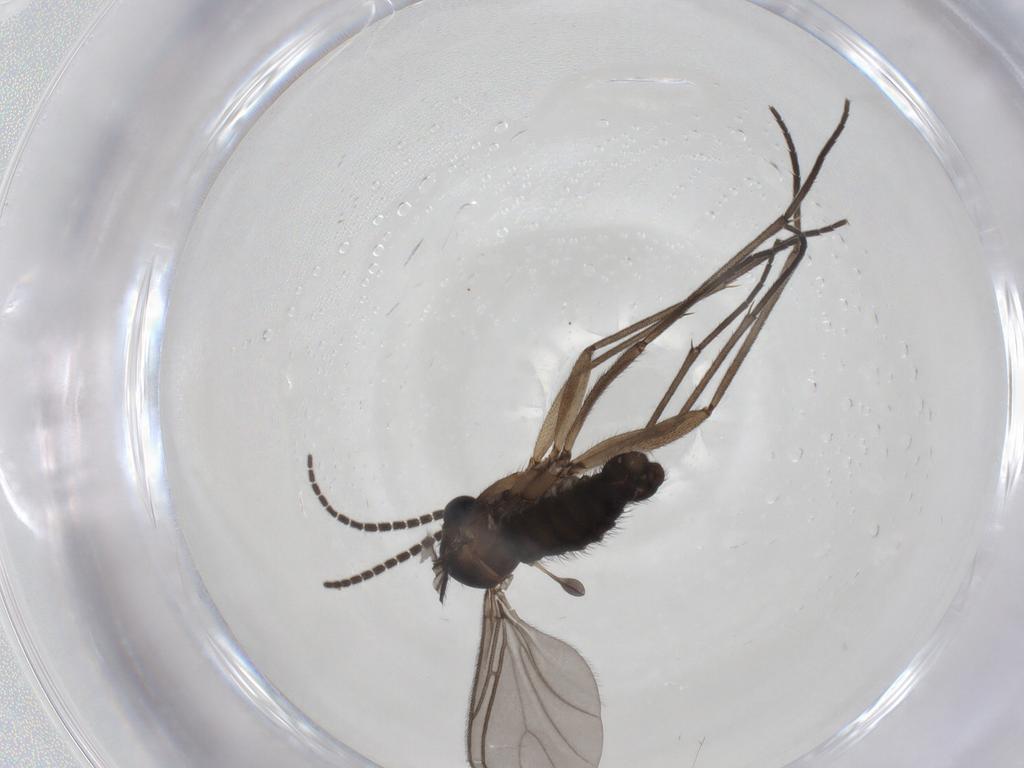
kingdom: Animalia
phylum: Arthropoda
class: Insecta
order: Diptera
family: Sciaridae
